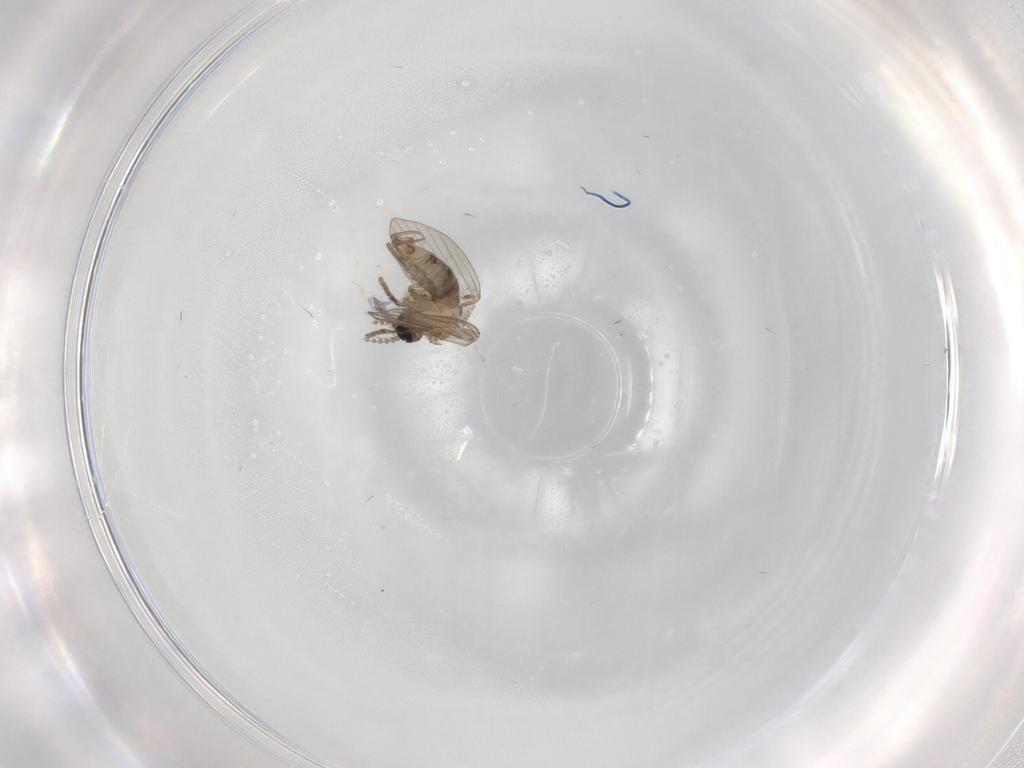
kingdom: Animalia
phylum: Arthropoda
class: Insecta
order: Diptera
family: Psychodidae
